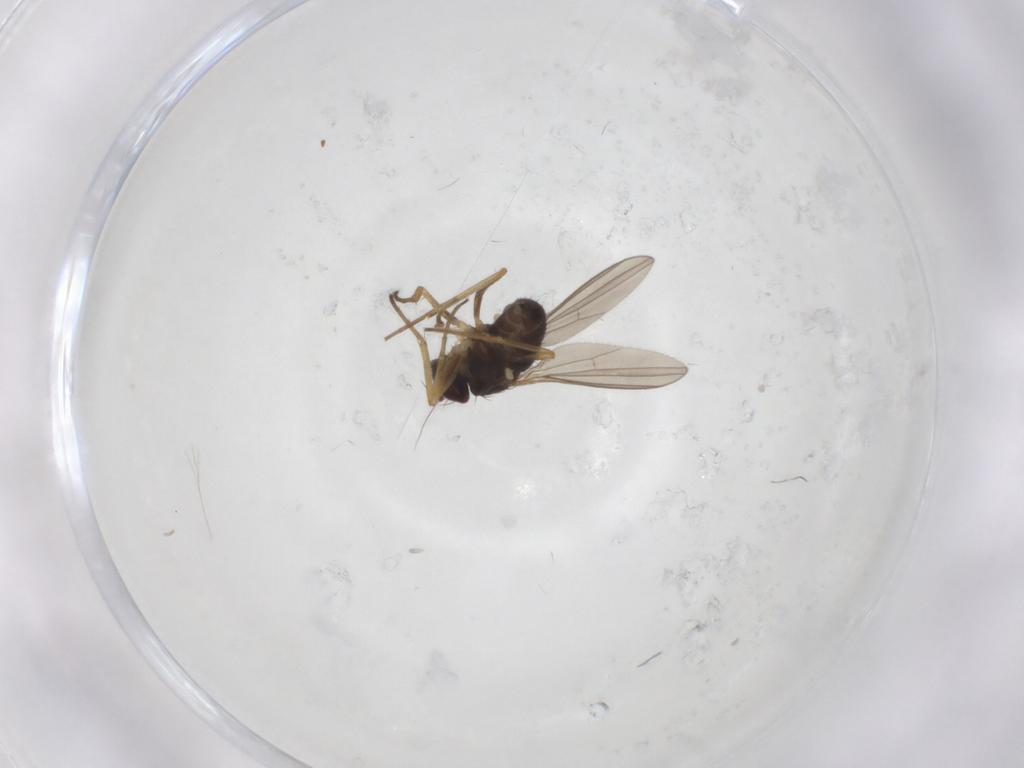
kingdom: Animalia
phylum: Arthropoda
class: Insecta
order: Diptera
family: Dolichopodidae
